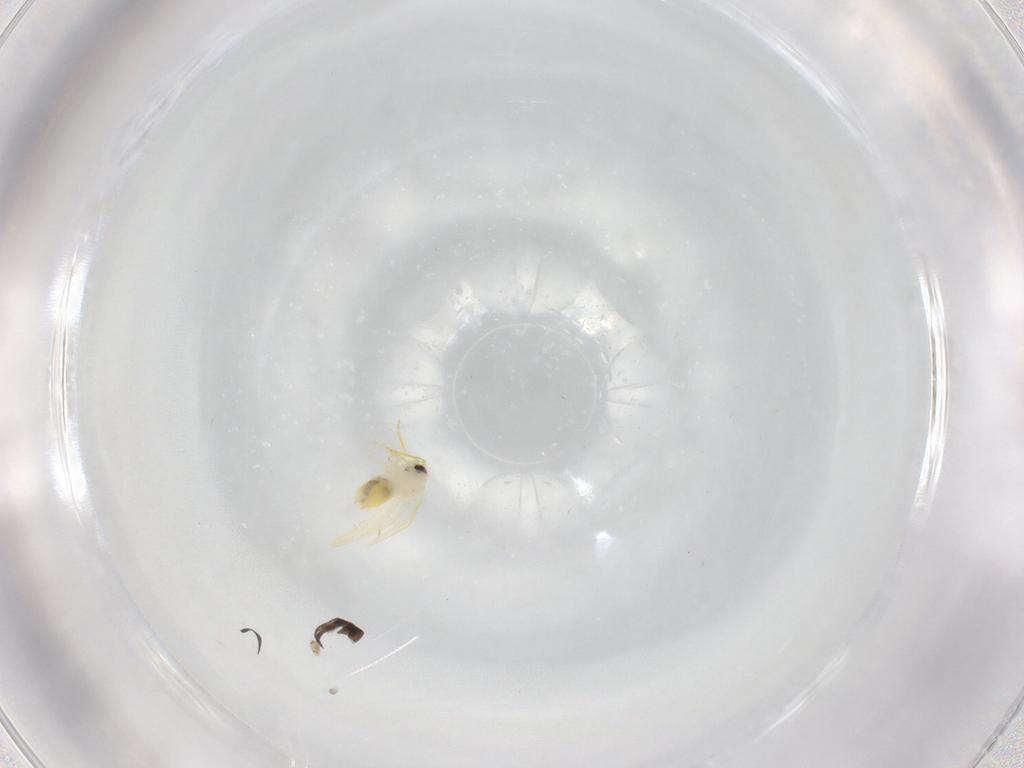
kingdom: Animalia
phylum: Arthropoda
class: Insecta
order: Hemiptera
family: Aleyrodidae
